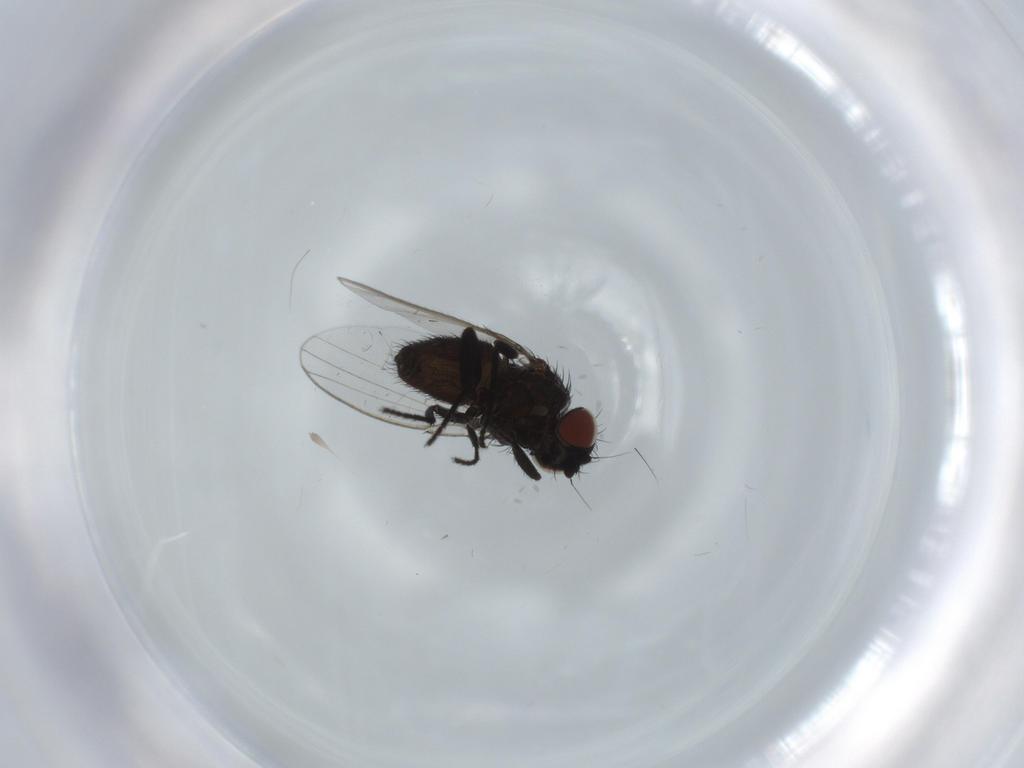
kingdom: Animalia
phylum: Arthropoda
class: Insecta
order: Diptera
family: Milichiidae
